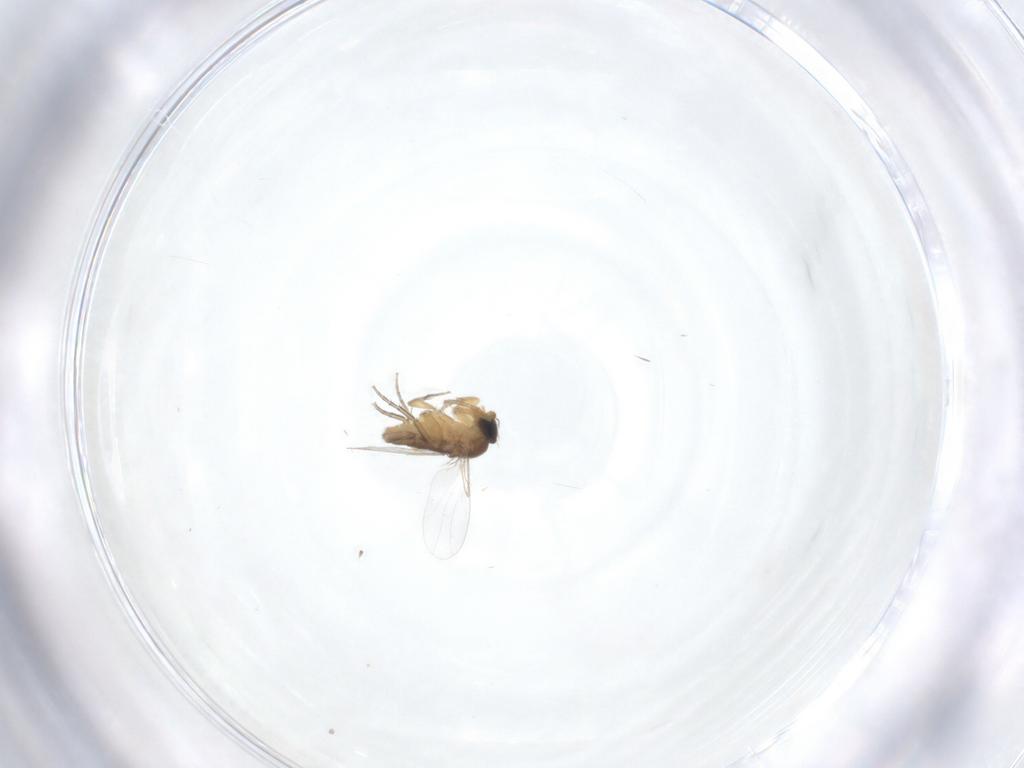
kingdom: Animalia
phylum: Arthropoda
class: Insecta
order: Diptera
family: Mycetophilidae
